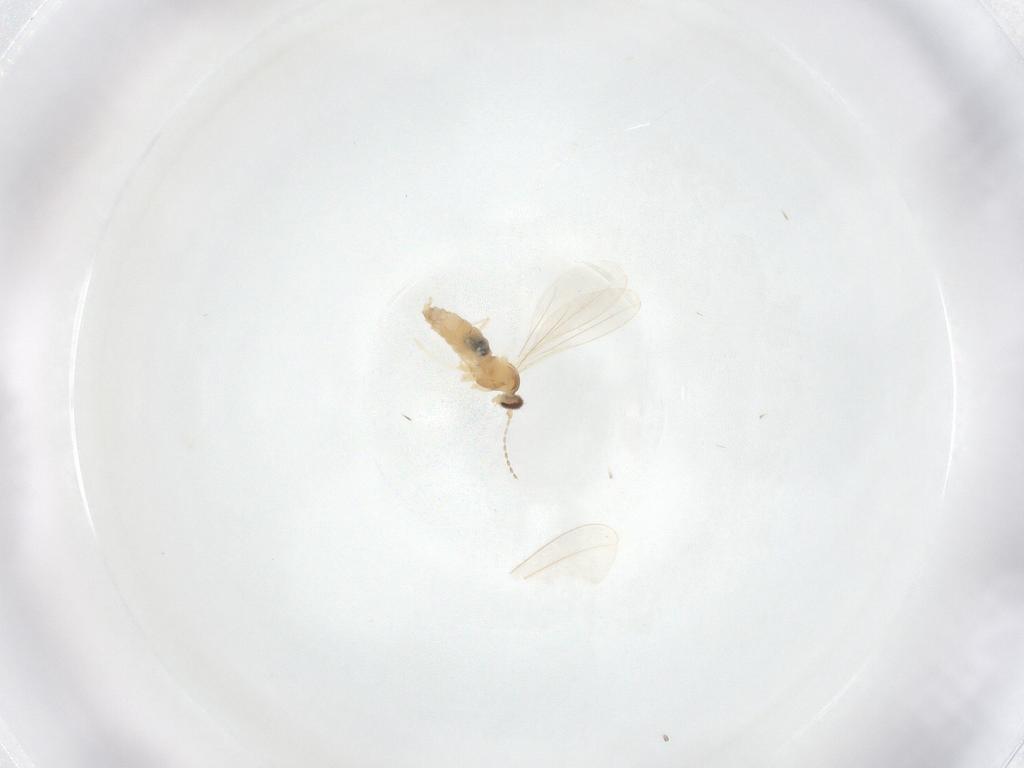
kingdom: Animalia
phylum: Arthropoda
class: Insecta
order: Diptera
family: Cecidomyiidae
